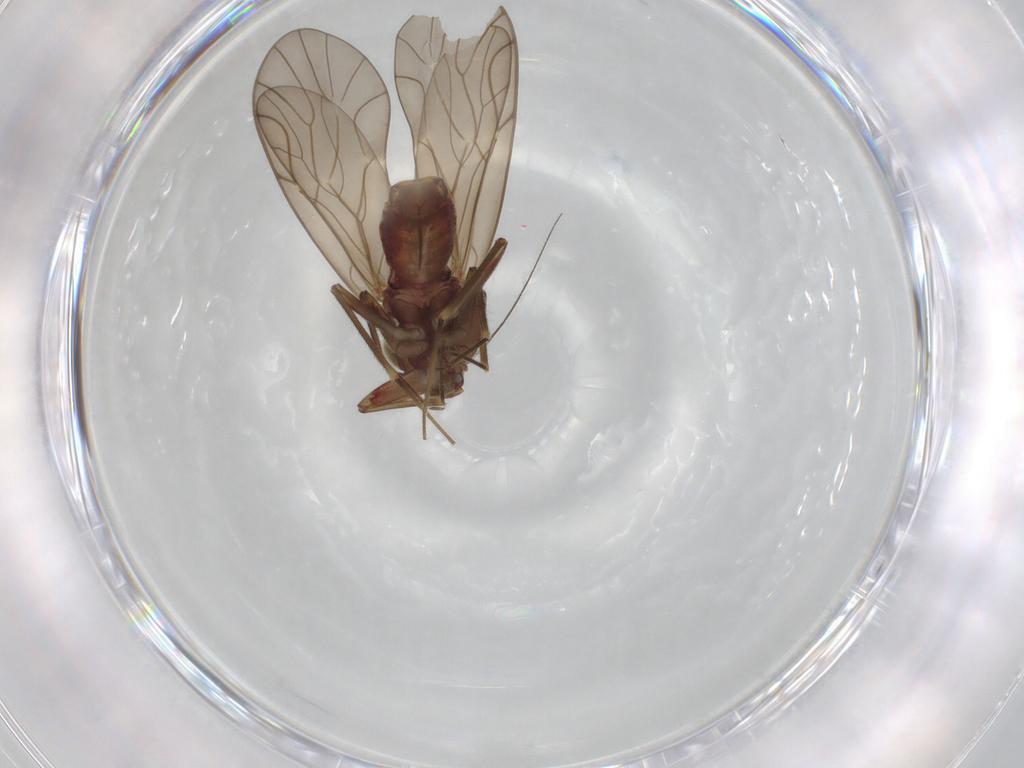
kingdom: Animalia
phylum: Arthropoda
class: Insecta
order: Psocodea
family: Philotarsidae
